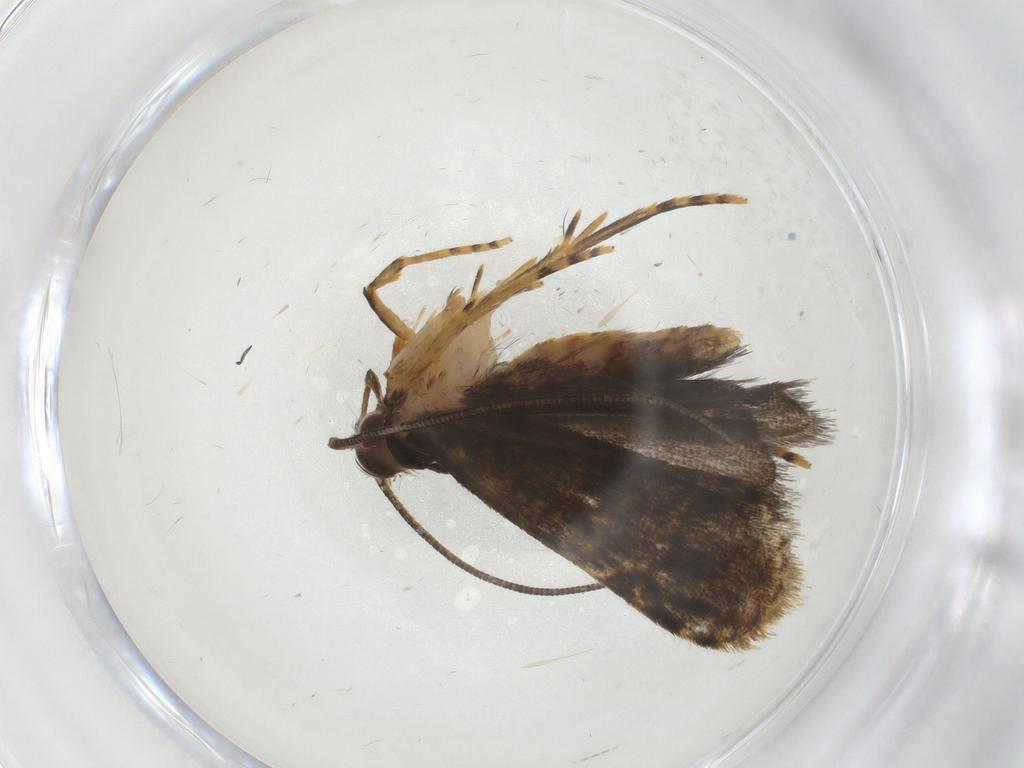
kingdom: Animalia
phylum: Arthropoda
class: Insecta
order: Lepidoptera
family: Geometridae
